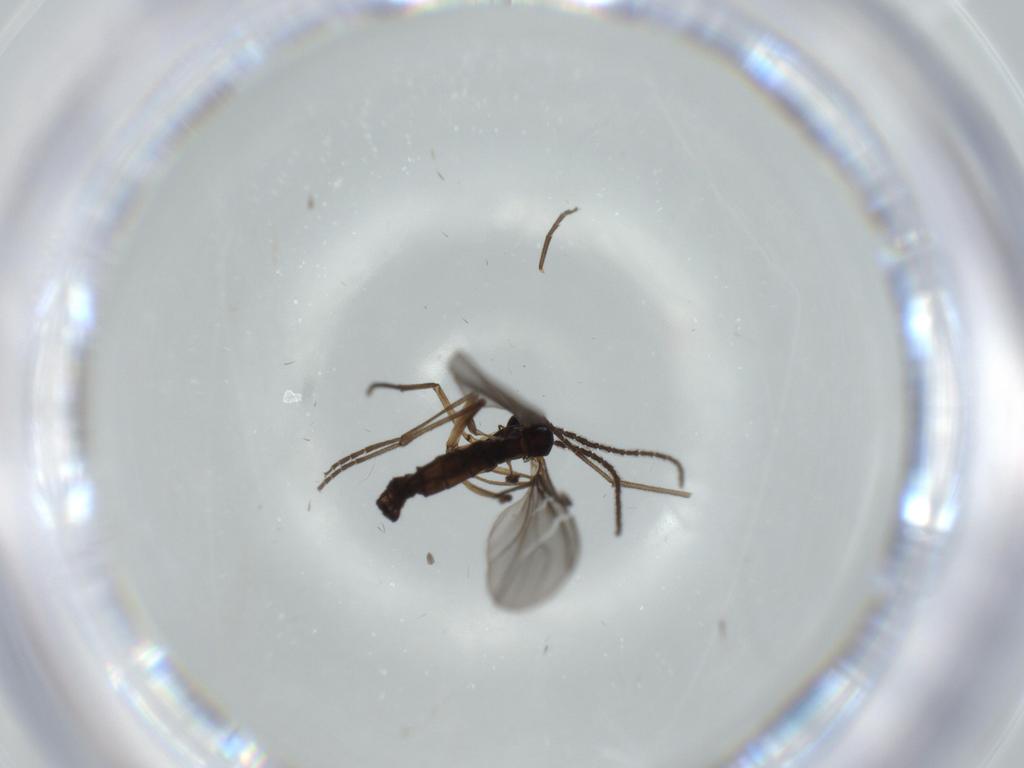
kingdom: Animalia
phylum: Arthropoda
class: Insecta
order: Diptera
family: Sciaridae
